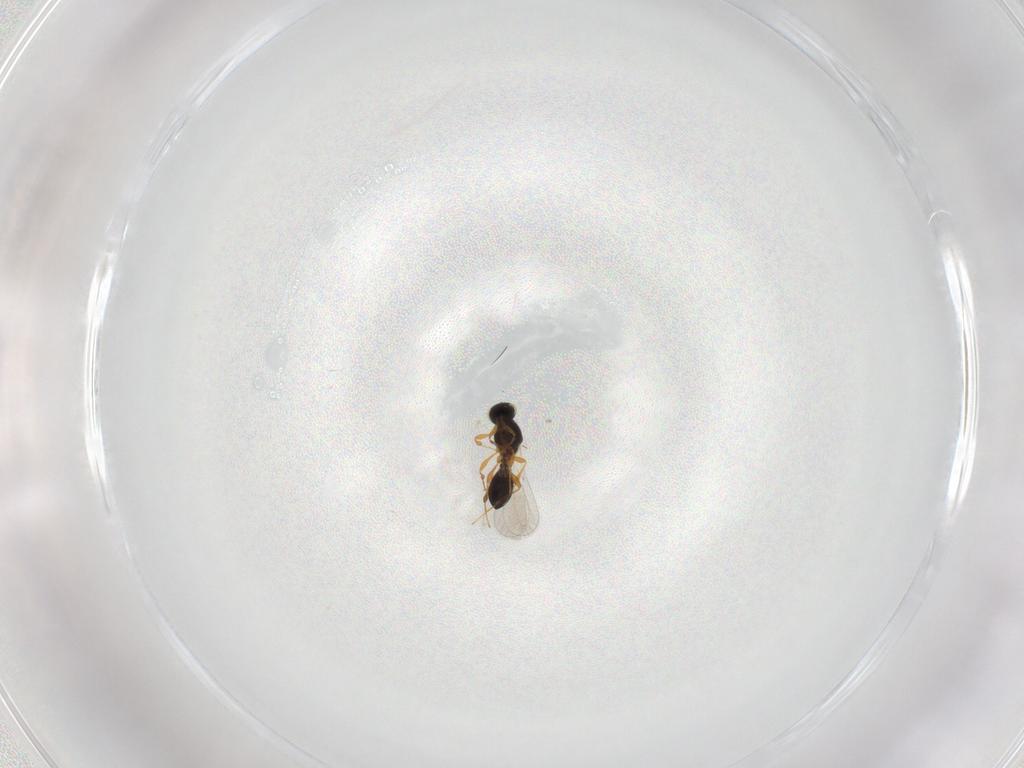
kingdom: Animalia
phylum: Arthropoda
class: Insecta
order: Hymenoptera
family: Platygastridae
